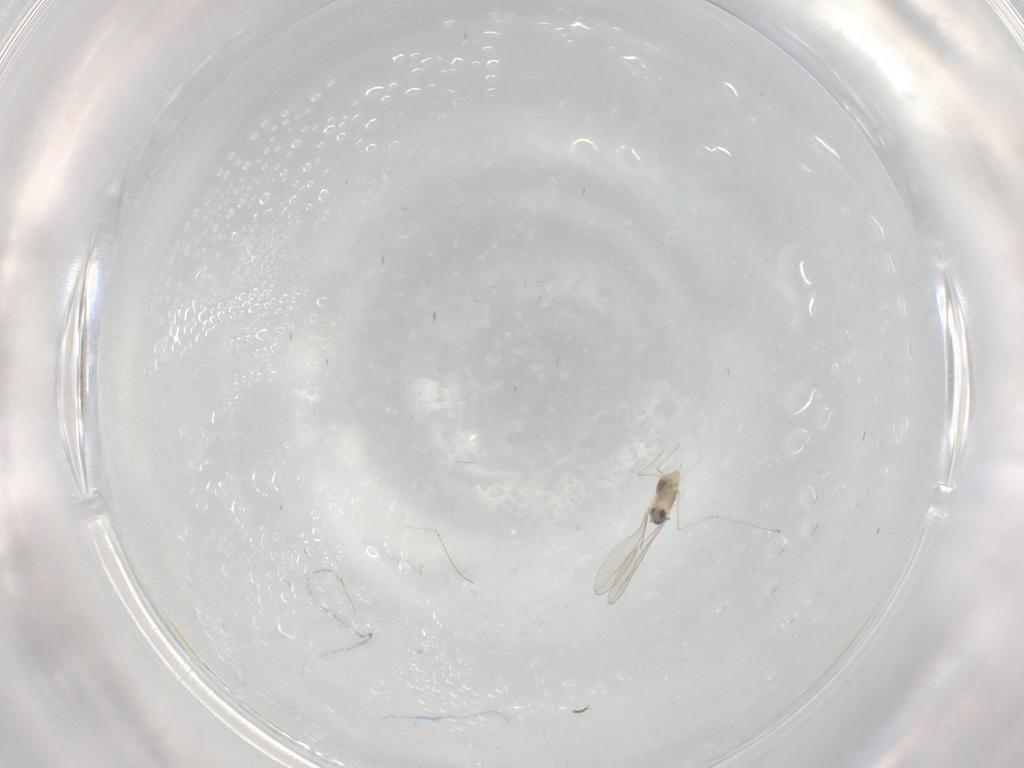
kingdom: Animalia
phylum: Arthropoda
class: Insecta
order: Diptera
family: Cecidomyiidae
